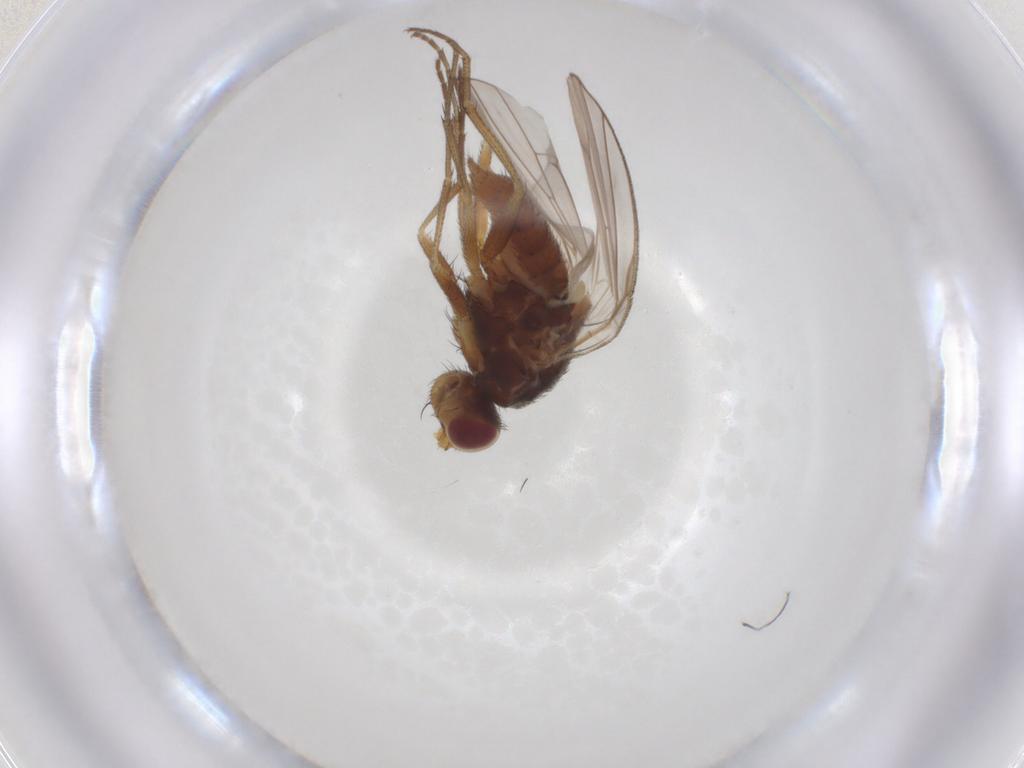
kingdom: Animalia
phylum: Arthropoda
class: Insecta
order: Diptera
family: Heleomyzidae
